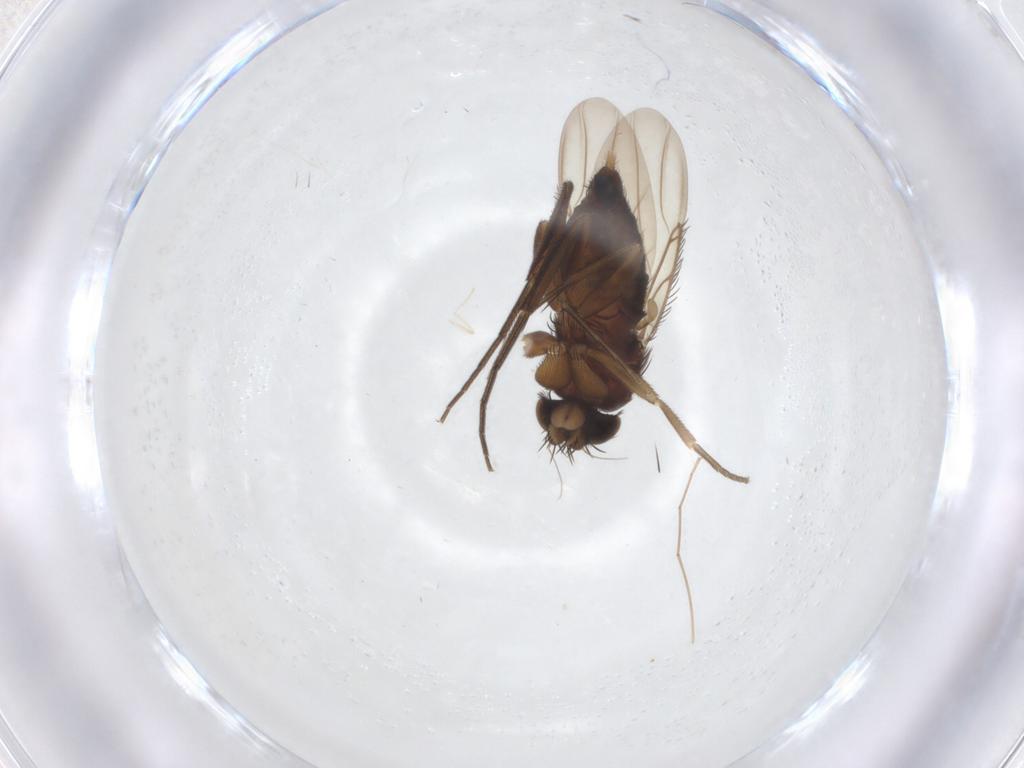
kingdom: Animalia
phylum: Arthropoda
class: Insecta
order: Diptera
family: Phoridae
